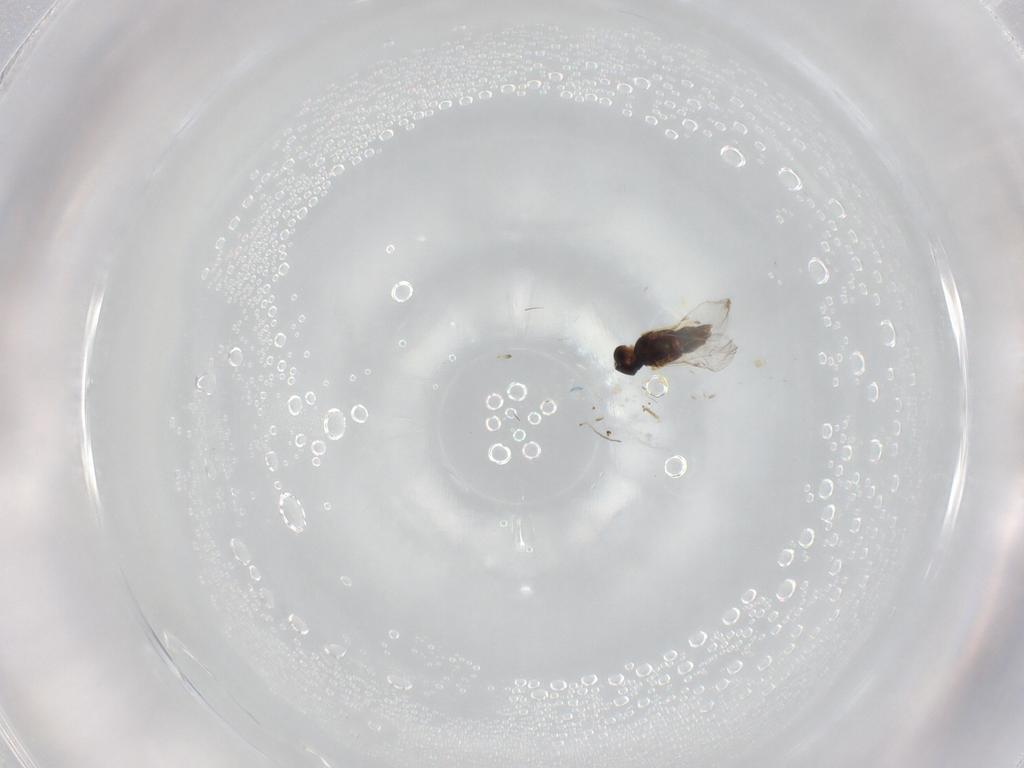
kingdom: Animalia
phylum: Arthropoda
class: Insecta
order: Hymenoptera
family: Encyrtidae
